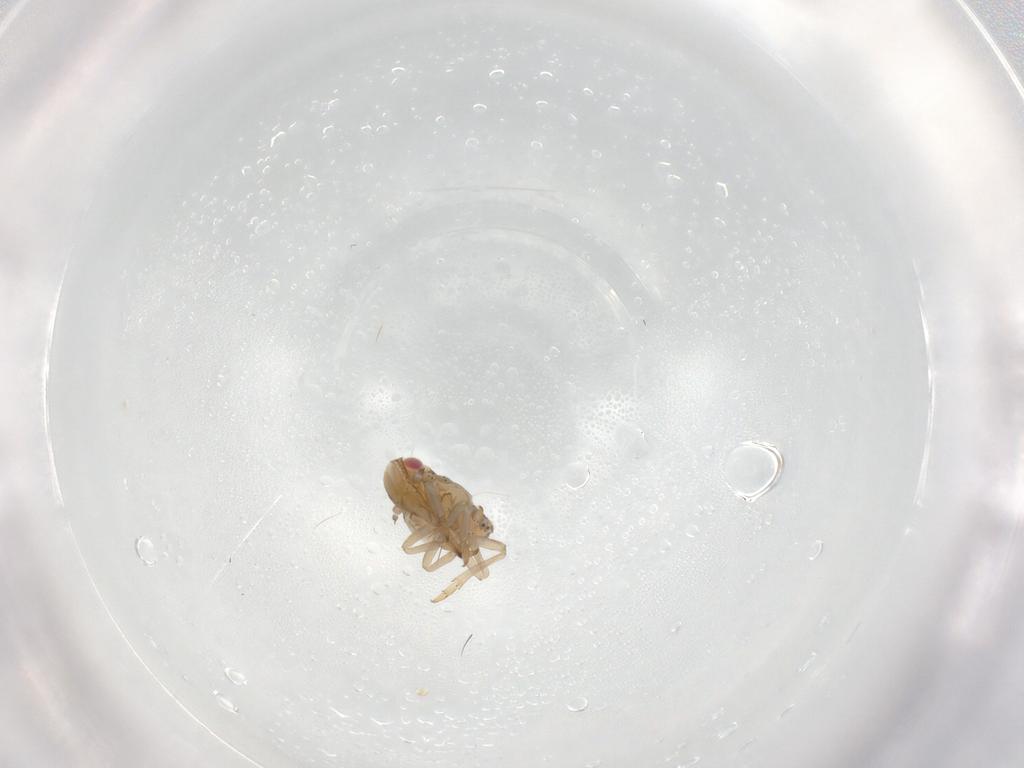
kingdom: Animalia
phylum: Arthropoda
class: Insecta
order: Hemiptera
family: Tropiduchidae
